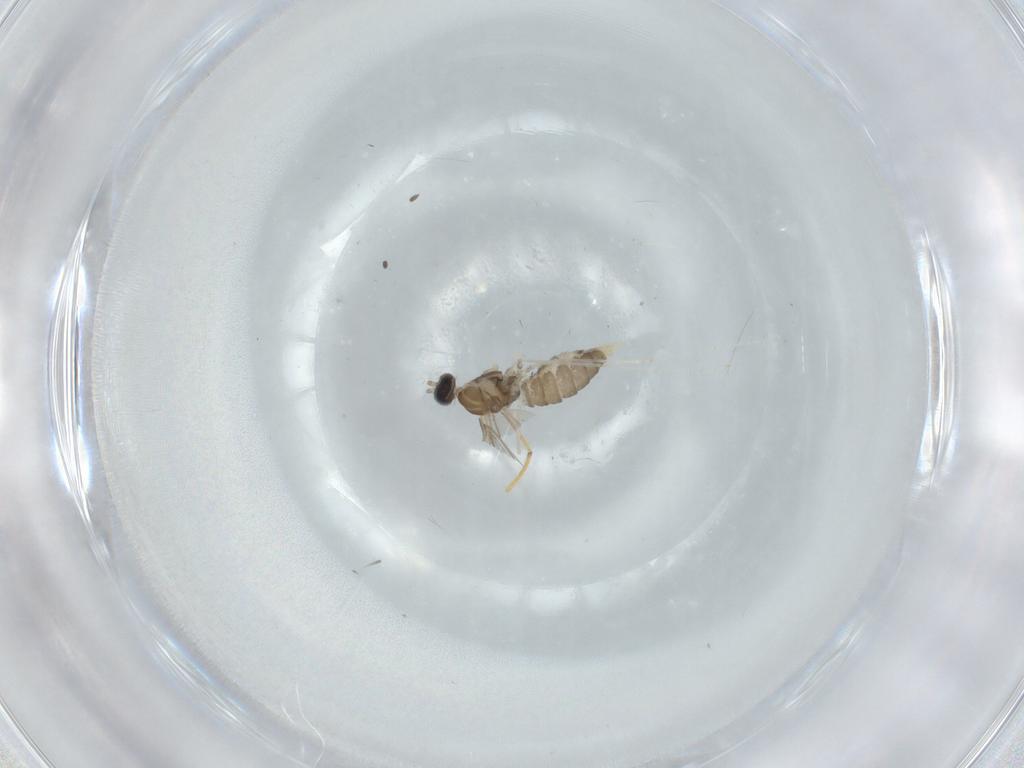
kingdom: Animalia
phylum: Arthropoda
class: Insecta
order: Diptera
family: Cecidomyiidae
